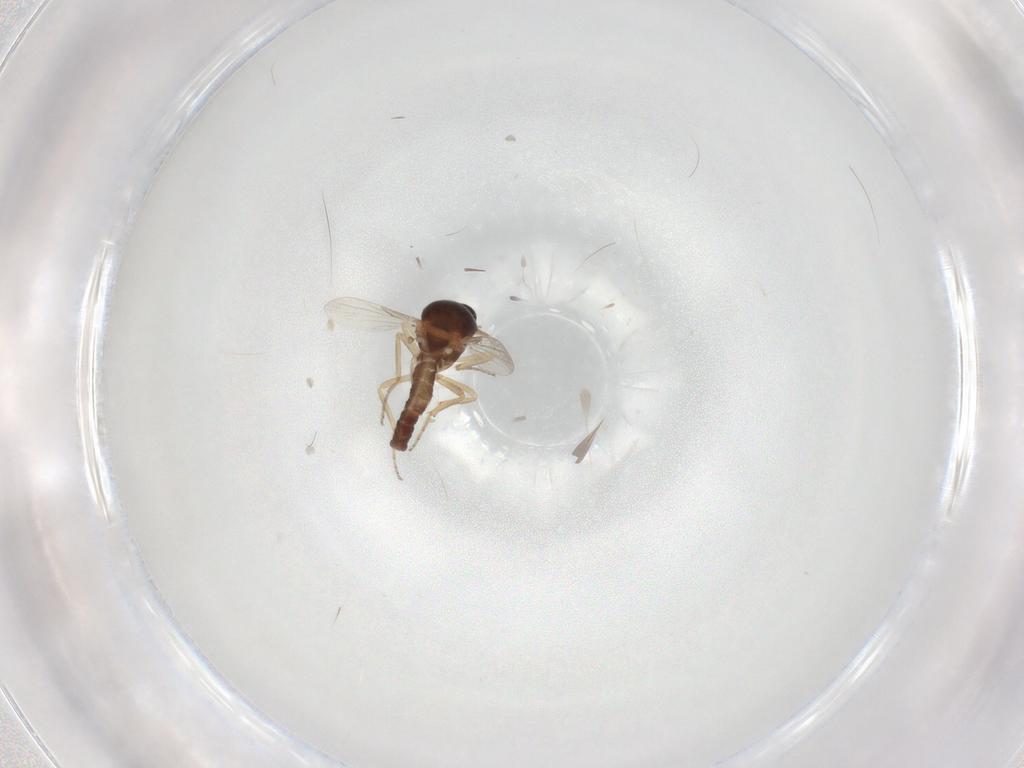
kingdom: Animalia
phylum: Arthropoda
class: Insecta
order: Diptera
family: Ceratopogonidae
